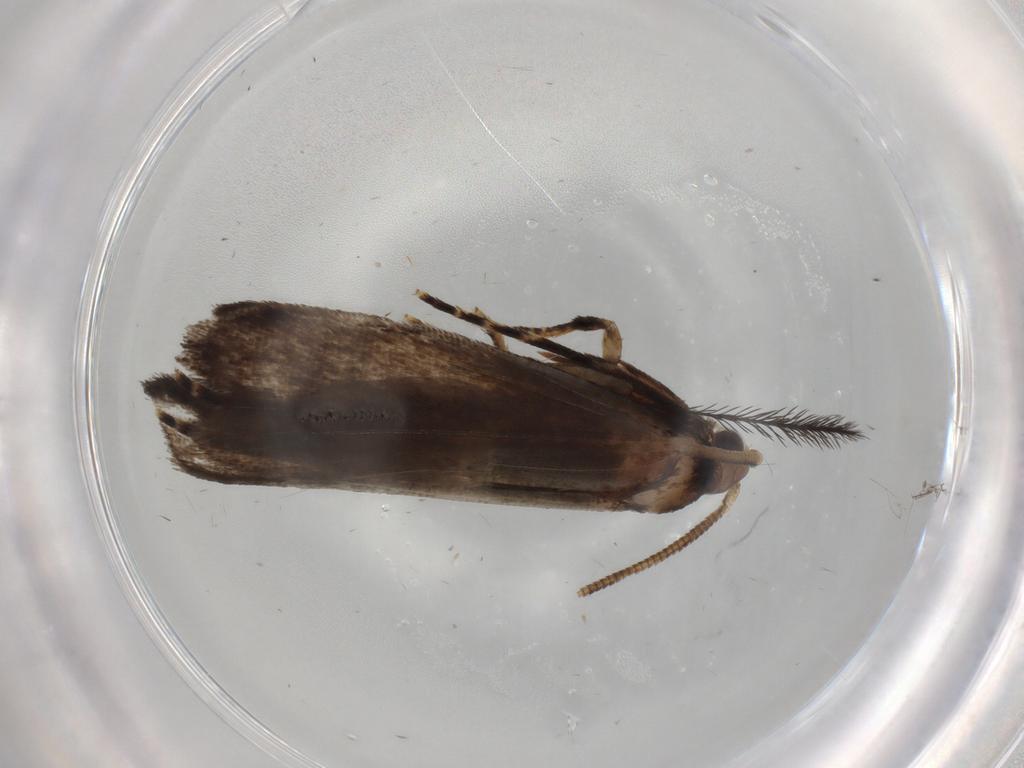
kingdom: Animalia
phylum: Arthropoda
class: Insecta
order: Lepidoptera
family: Tineidae
